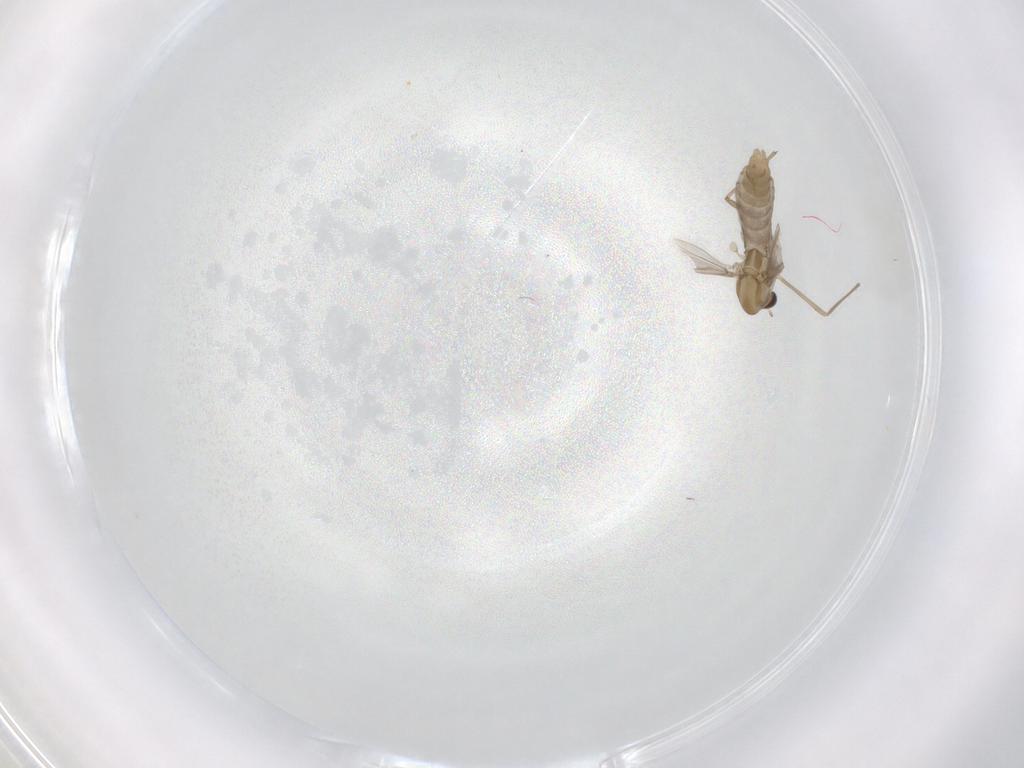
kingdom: Animalia
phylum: Arthropoda
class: Insecta
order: Diptera
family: Chironomidae
